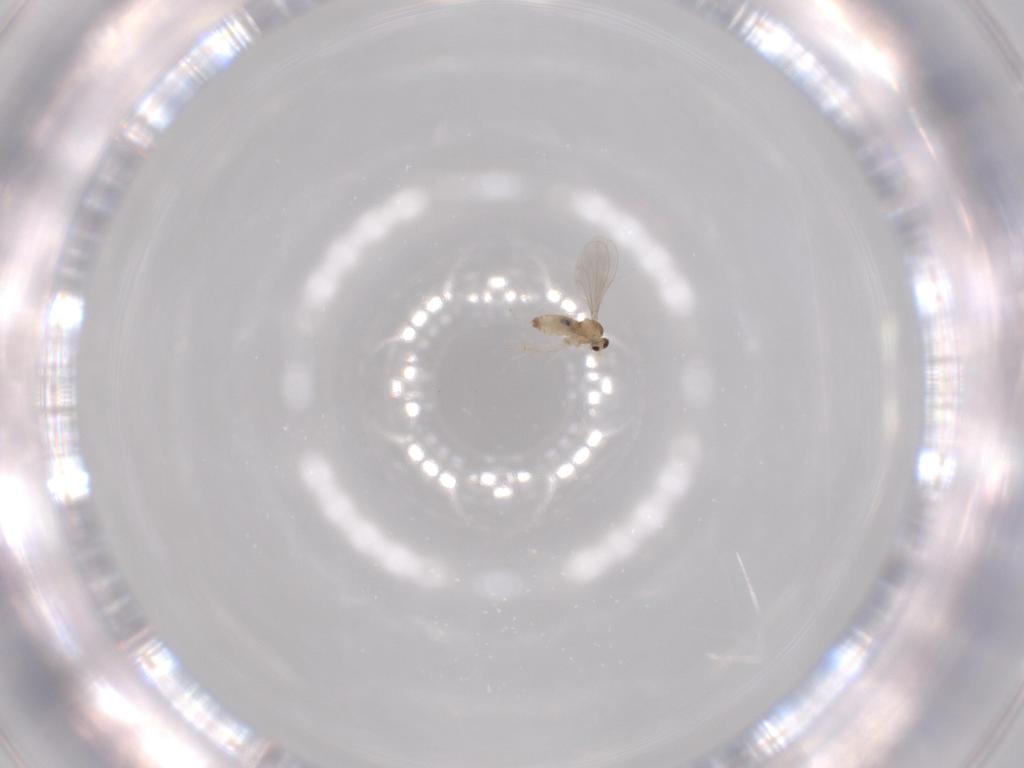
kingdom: Animalia
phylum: Arthropoda
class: Insecta
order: Diptera
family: Cecidomyiidae
